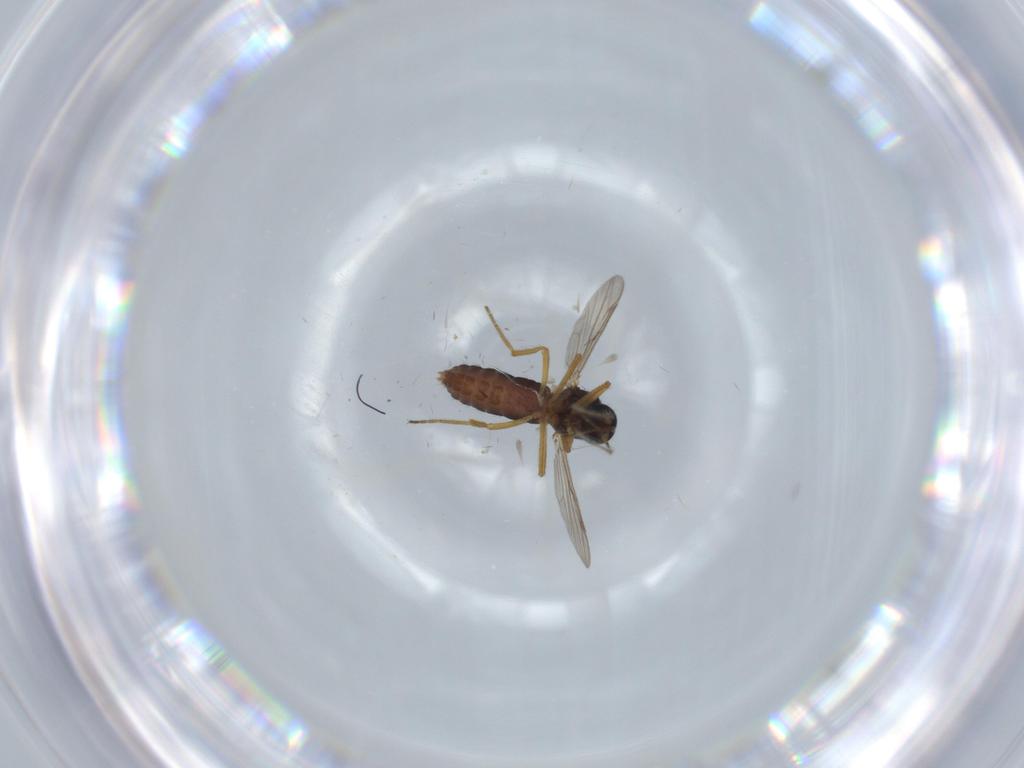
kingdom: Animalia
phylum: Arthropoda
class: Insecta
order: Diptera
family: Ceratopogonidae
